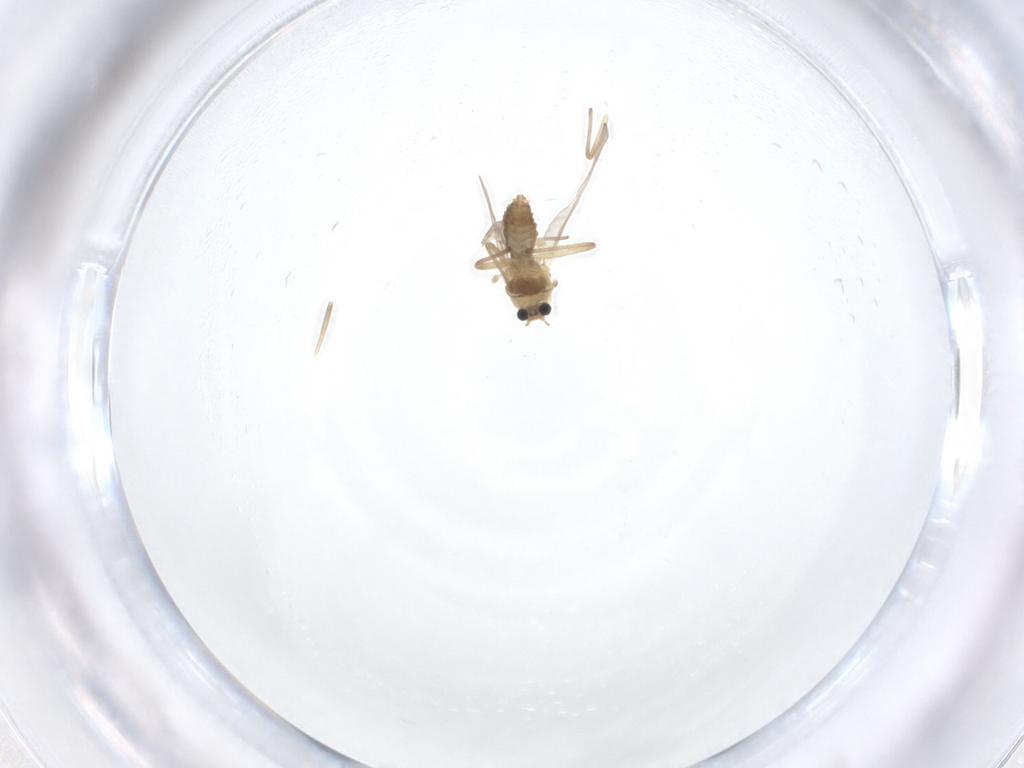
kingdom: Animalia
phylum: Arthropoda
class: Insecta
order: Diptera
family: Chironomidae
